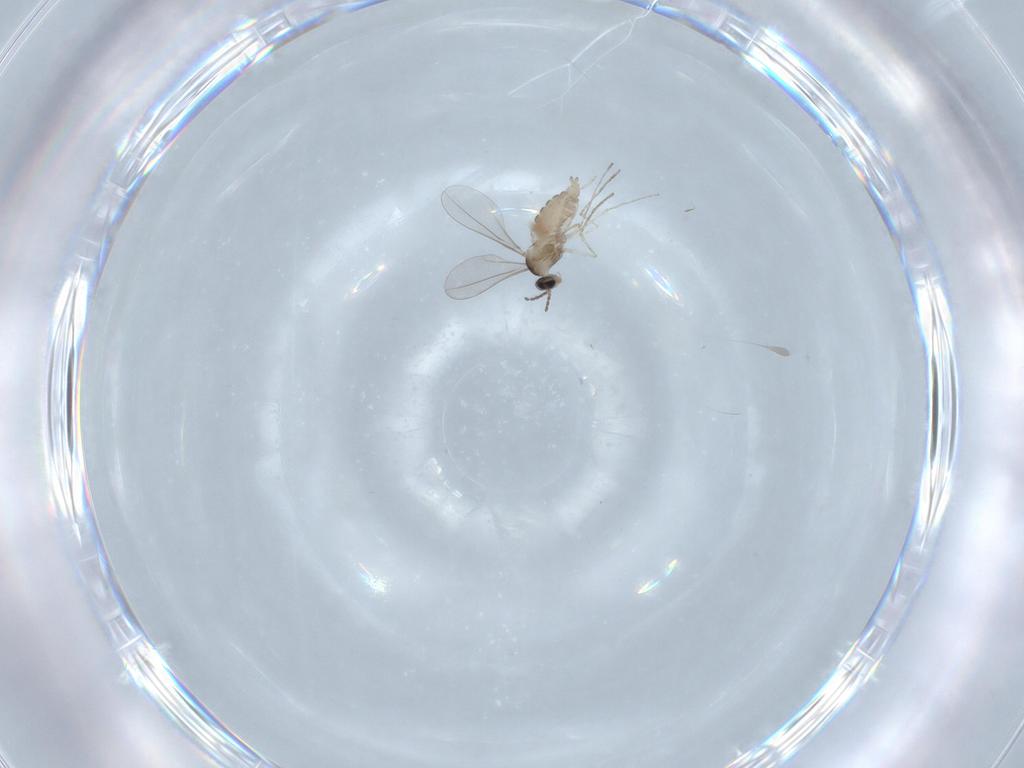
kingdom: Animalia
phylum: Arthropoda
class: Insecta
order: Diptera
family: Cecidomyiidae
